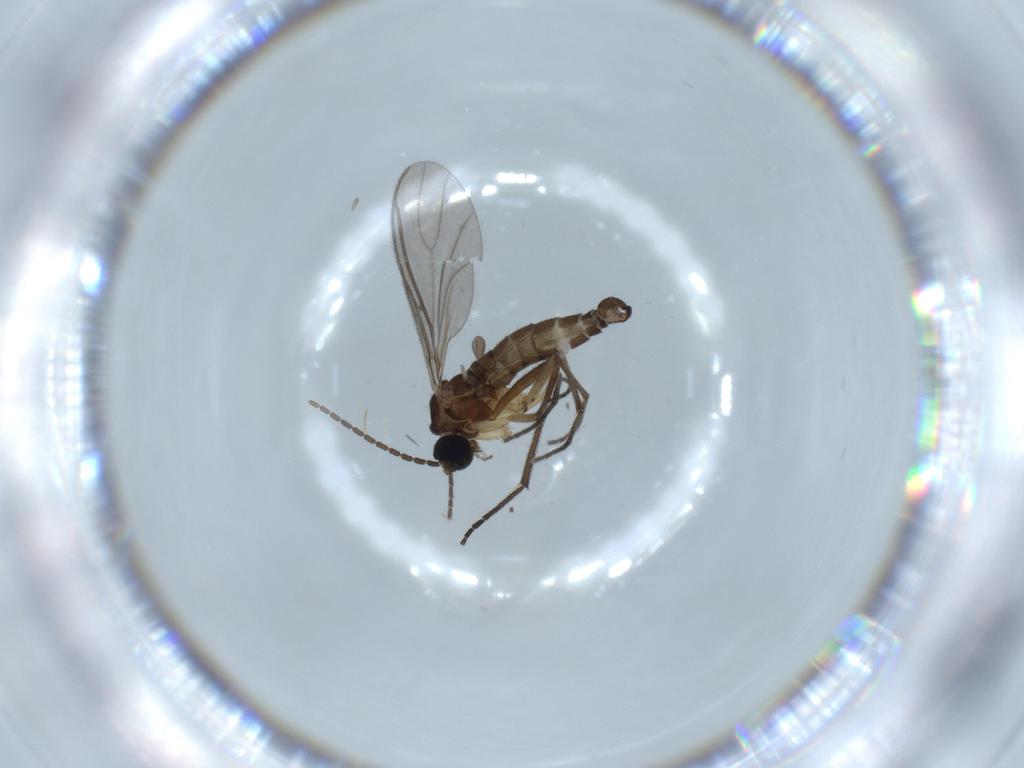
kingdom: Animalia
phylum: Arthropoda
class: Insecta
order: Diptera
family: Sciaridae
